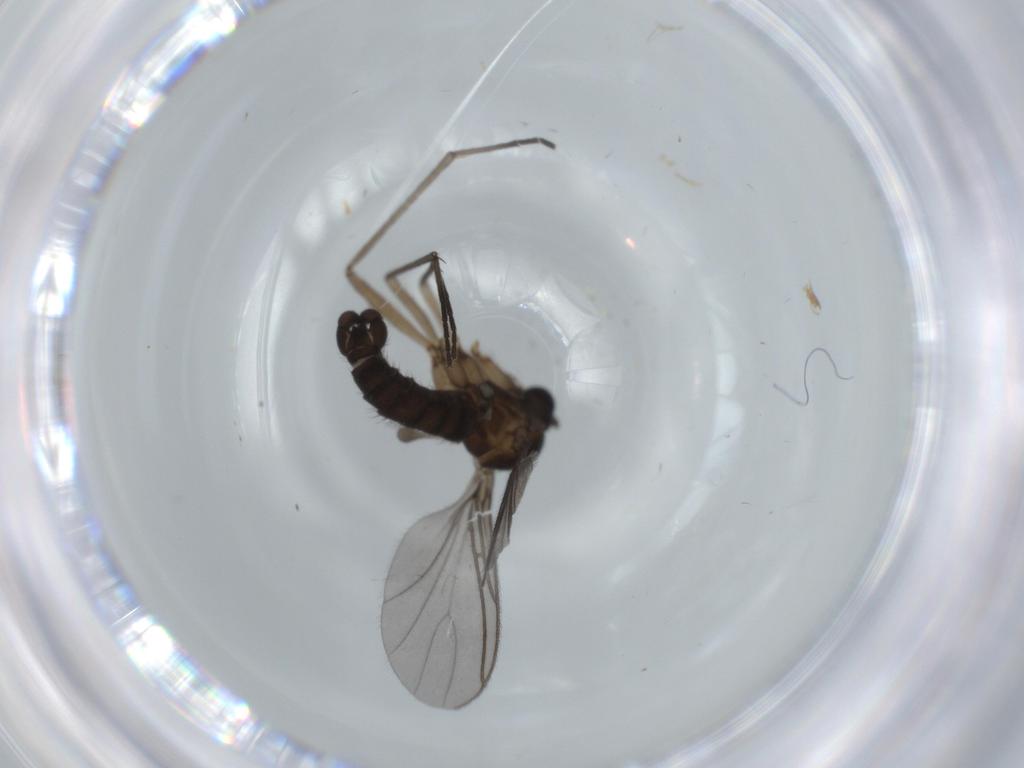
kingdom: Animalia
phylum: Arthropoda
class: Insecta
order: Diptera
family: Sciaridae
